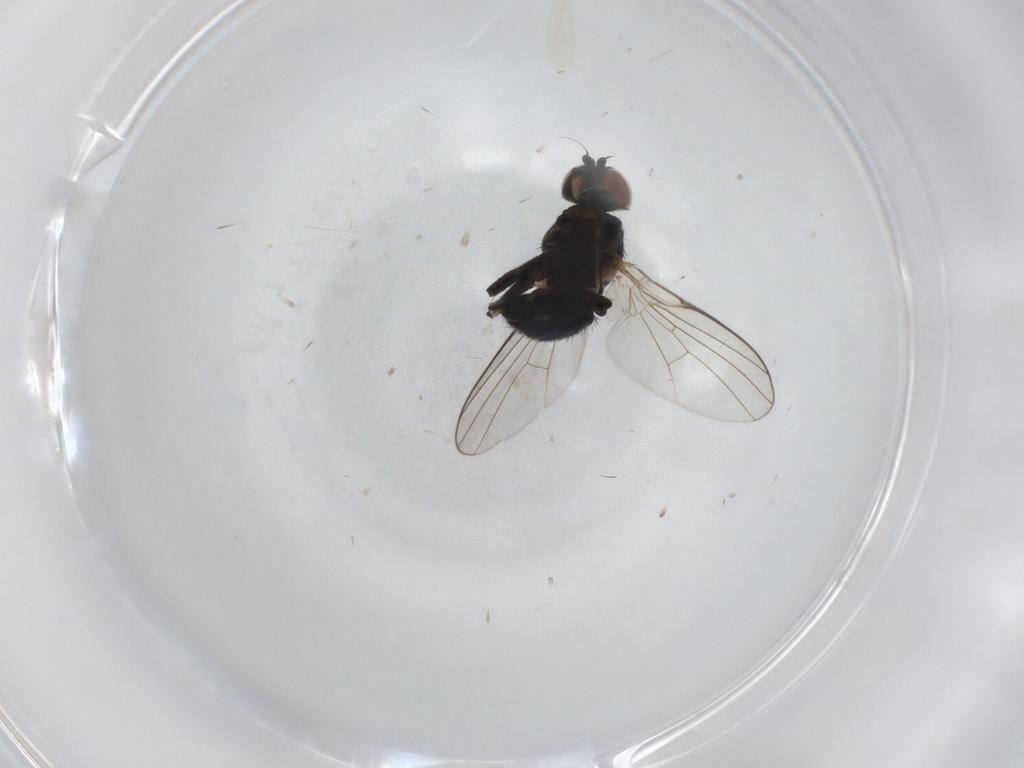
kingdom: Animalia
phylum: Arthropoda
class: Insecta
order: Diptera
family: Agromyzidae
